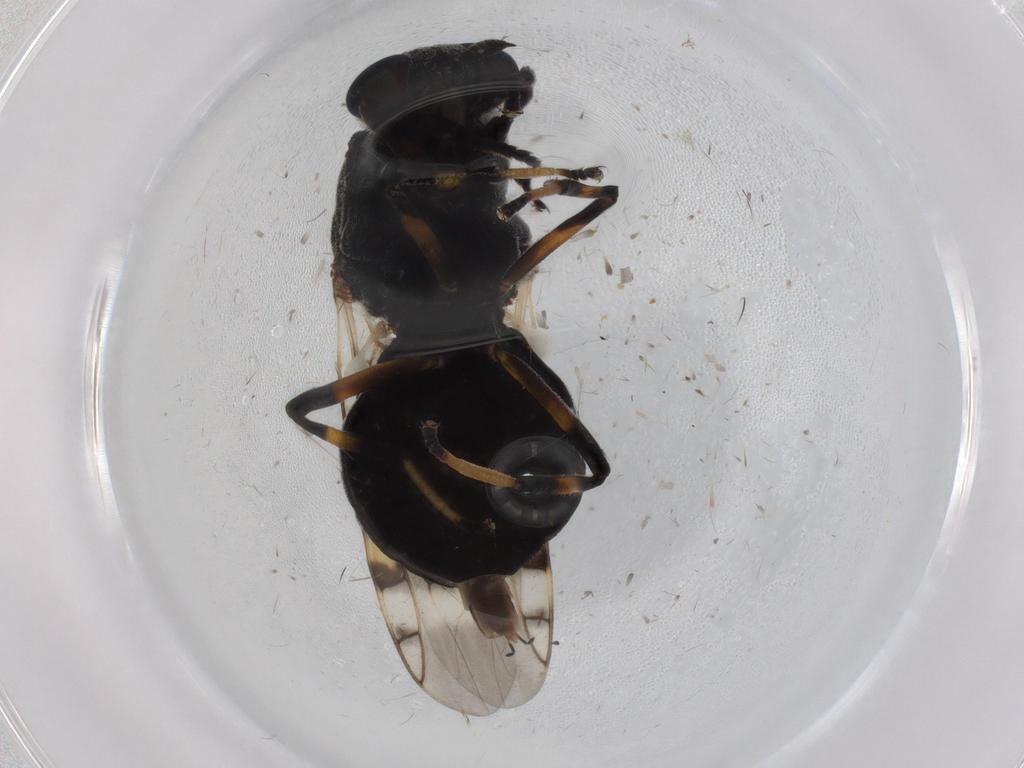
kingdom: Animalia
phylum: Arthropoda
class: Insecta
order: Diptera
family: Stratiomyidae
